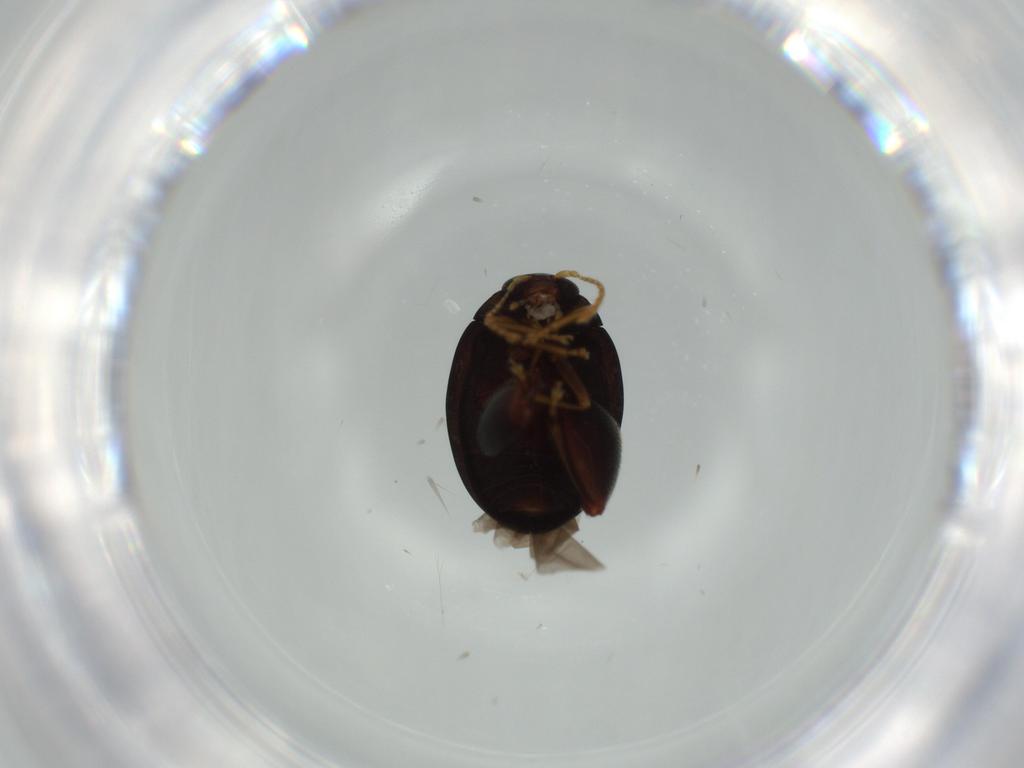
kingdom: Animalia
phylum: Arthropoda
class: Insecta
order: Coleoptera
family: Chrysomelidae
